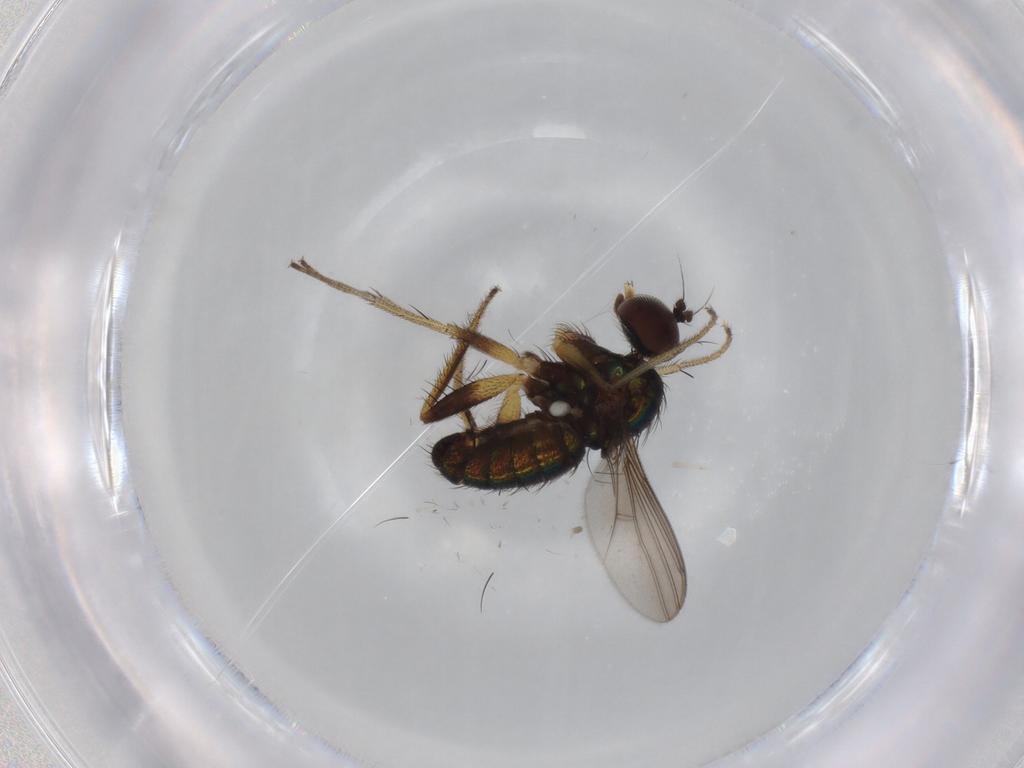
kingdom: Animalia
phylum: Arthropoda
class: Insecta
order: Diptera
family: Dolichopodidae
